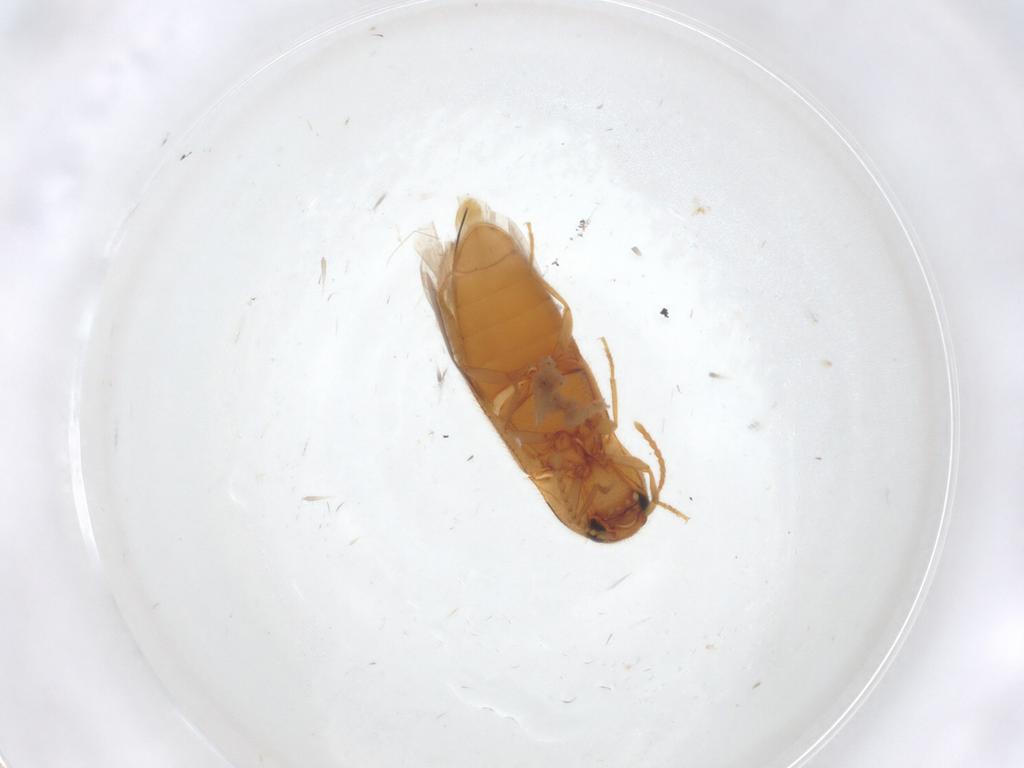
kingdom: Animalia
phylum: Arthropoda
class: Insecta
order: Coleoptera
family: Elateridae
